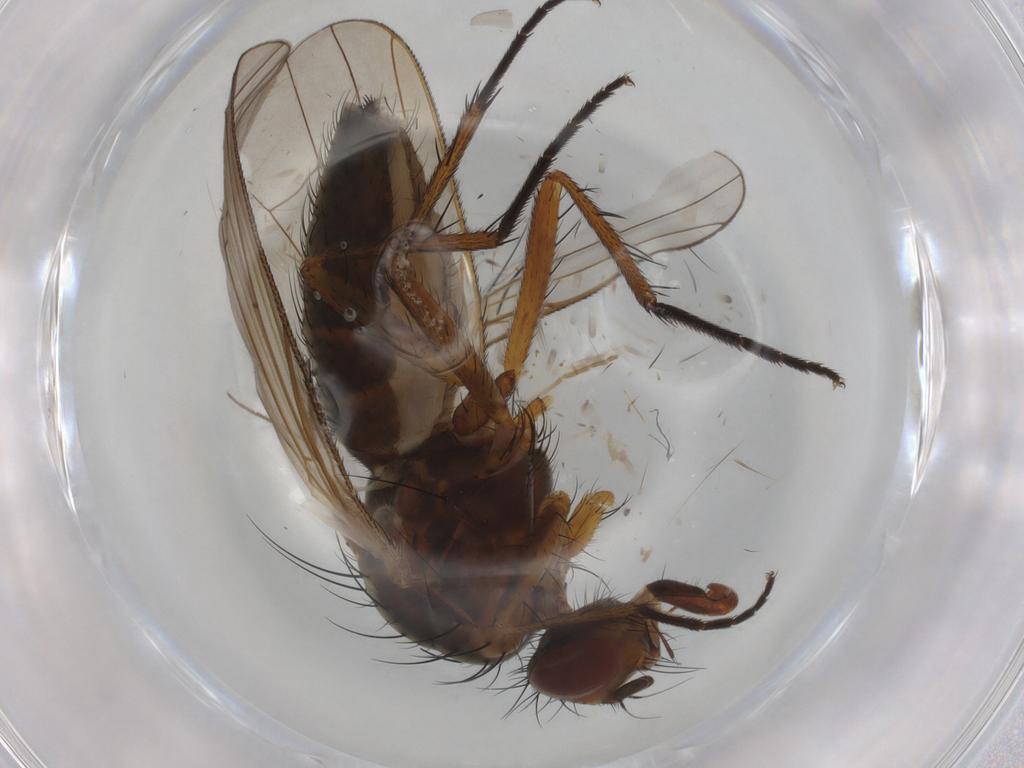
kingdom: Animalia
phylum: Arthropoda
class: Insecta
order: Diptera
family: Anthomyiidae
